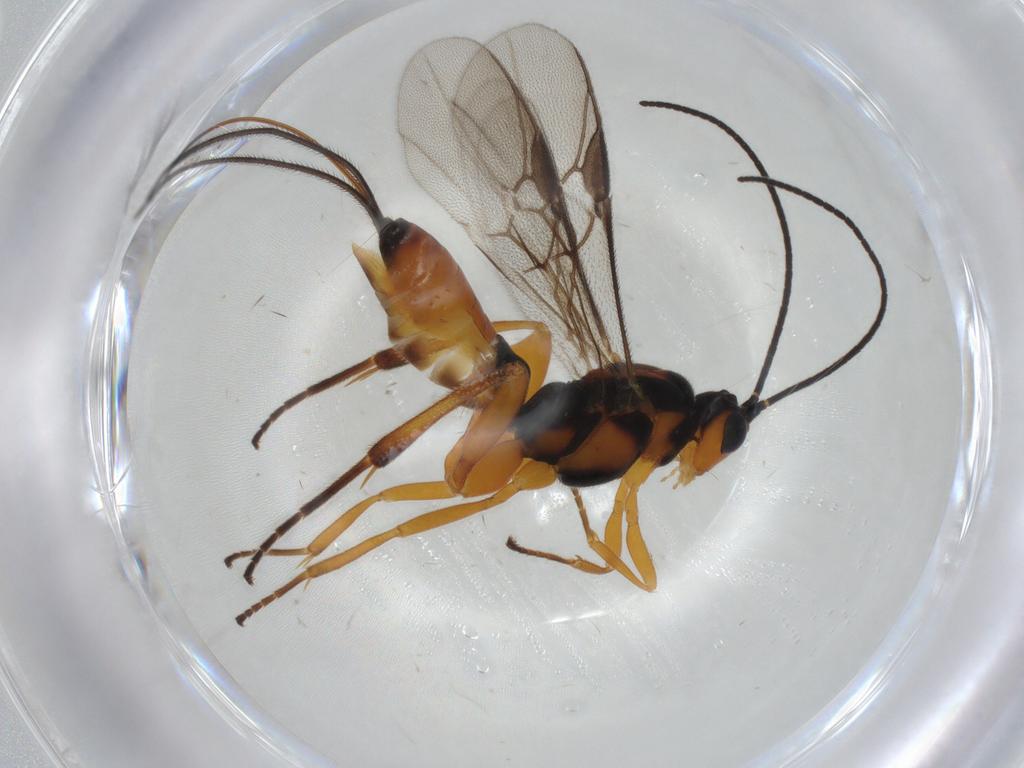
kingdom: Animalia
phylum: Arthropoda
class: Insecta
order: Hymenoptera
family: Braconidae
